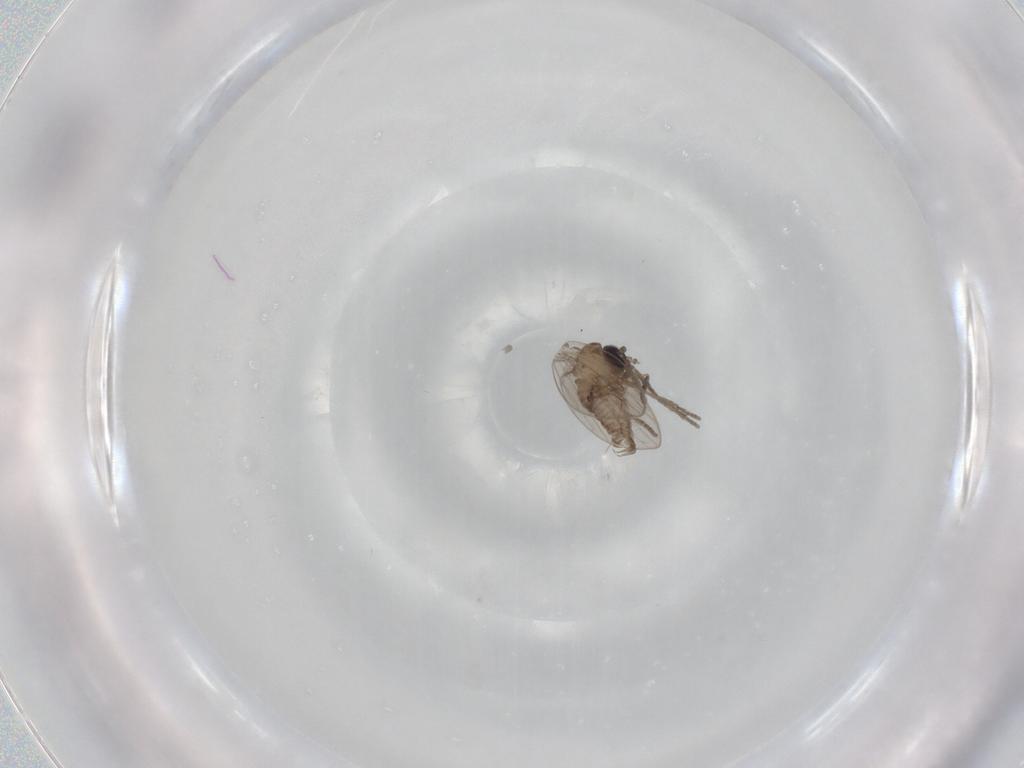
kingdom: Animalia
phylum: Arthropoda
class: Insecta
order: Diptera
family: Psychodidae
